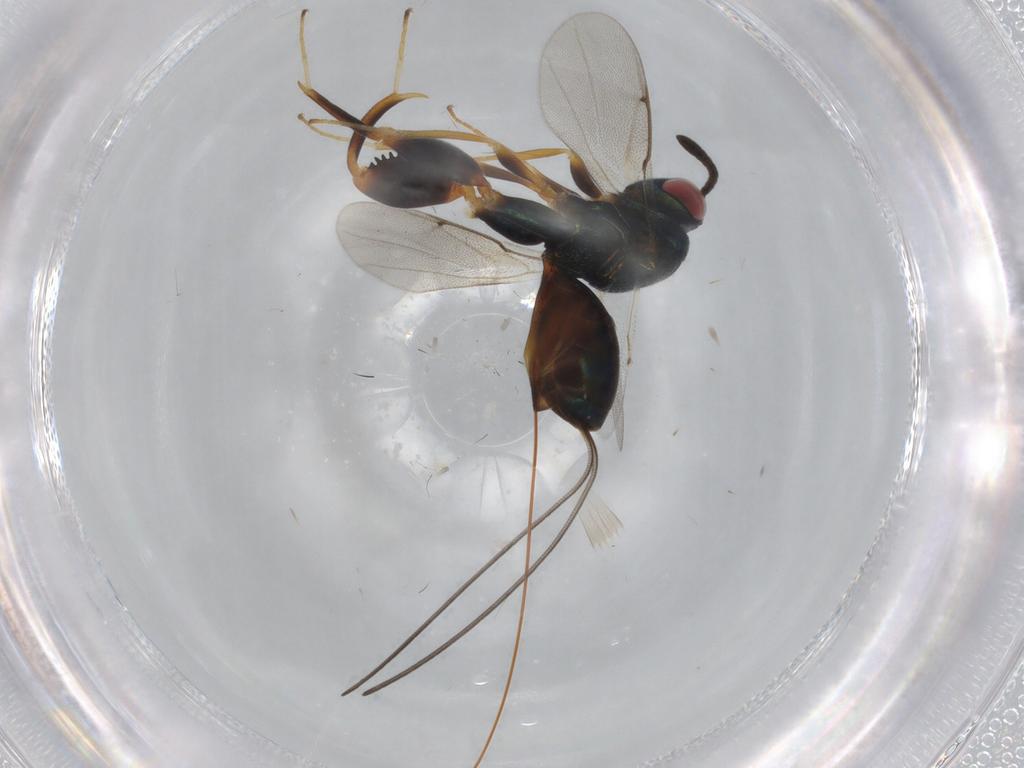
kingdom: Animalia
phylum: Arthropoda
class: Insecta
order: Hymenoptera
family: Torymidae
